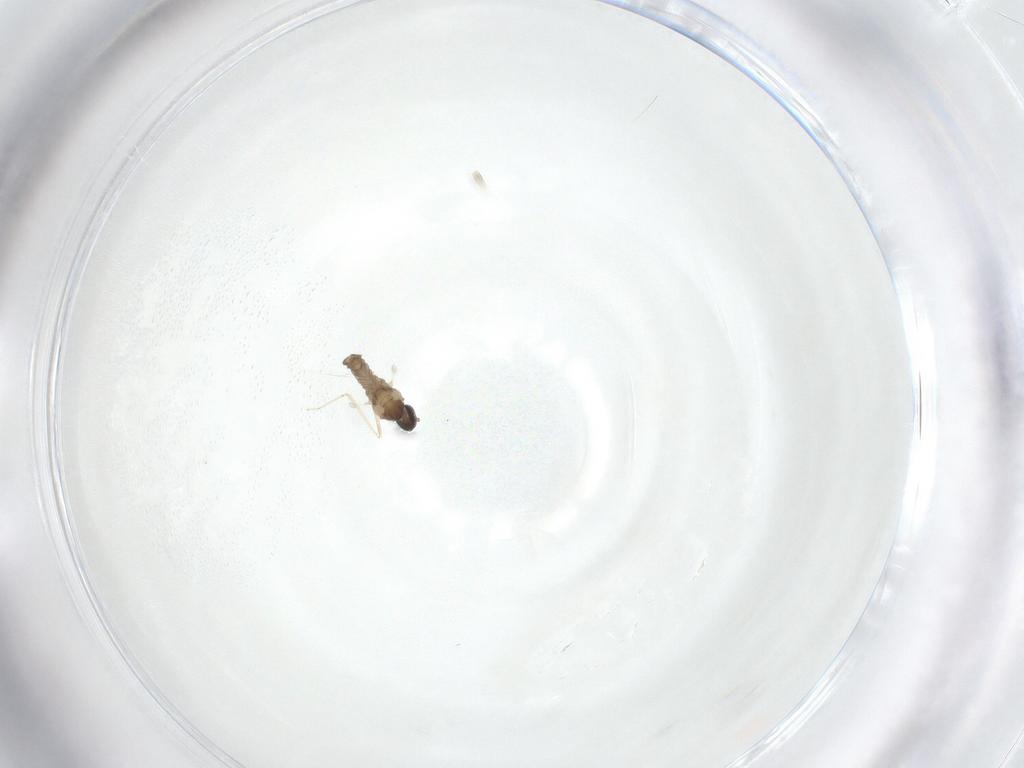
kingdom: Animalia
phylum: Arthropoda
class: Insecta
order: Diptera
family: Cecidomyiidae
